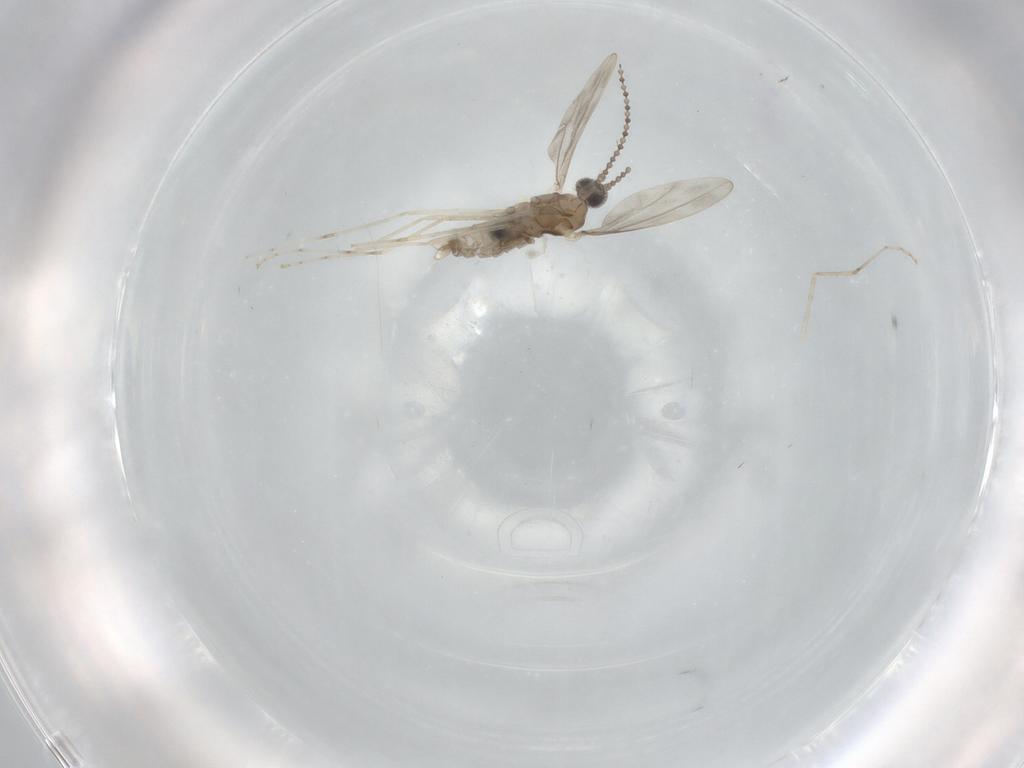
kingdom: Animalia
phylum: Arthropoda
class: Insecta
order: Diptera
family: Cecidomyiidae
